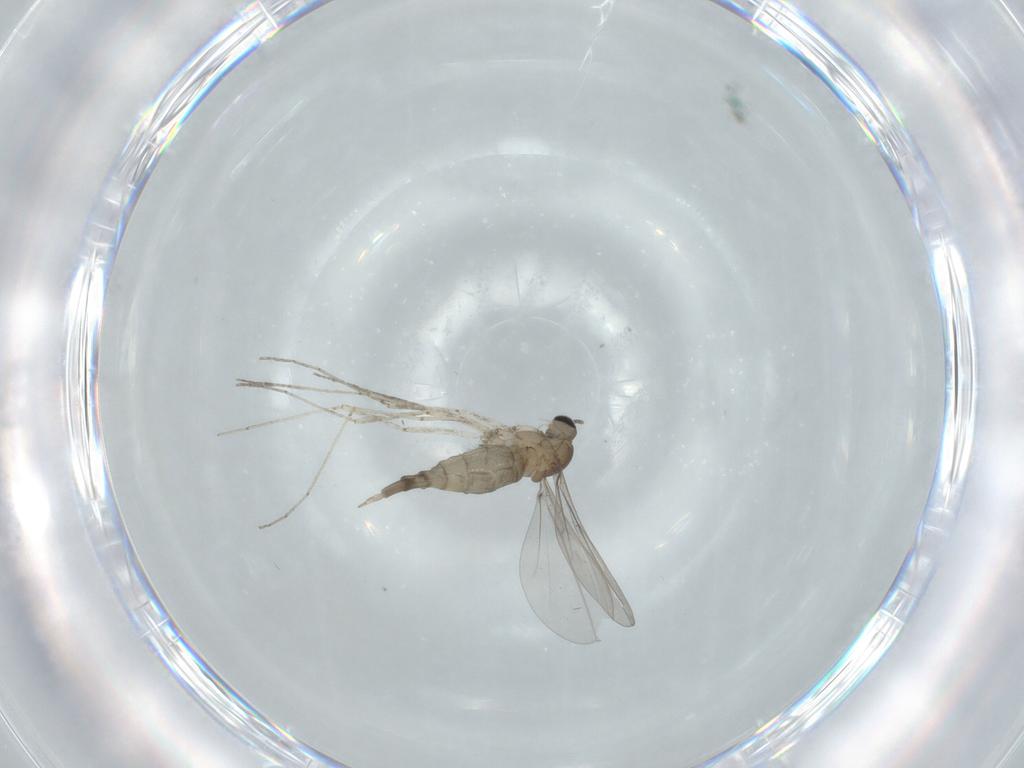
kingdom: Animalia
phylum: Arthropoda
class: Insecta
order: Diptera
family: Cecidomyiidae
